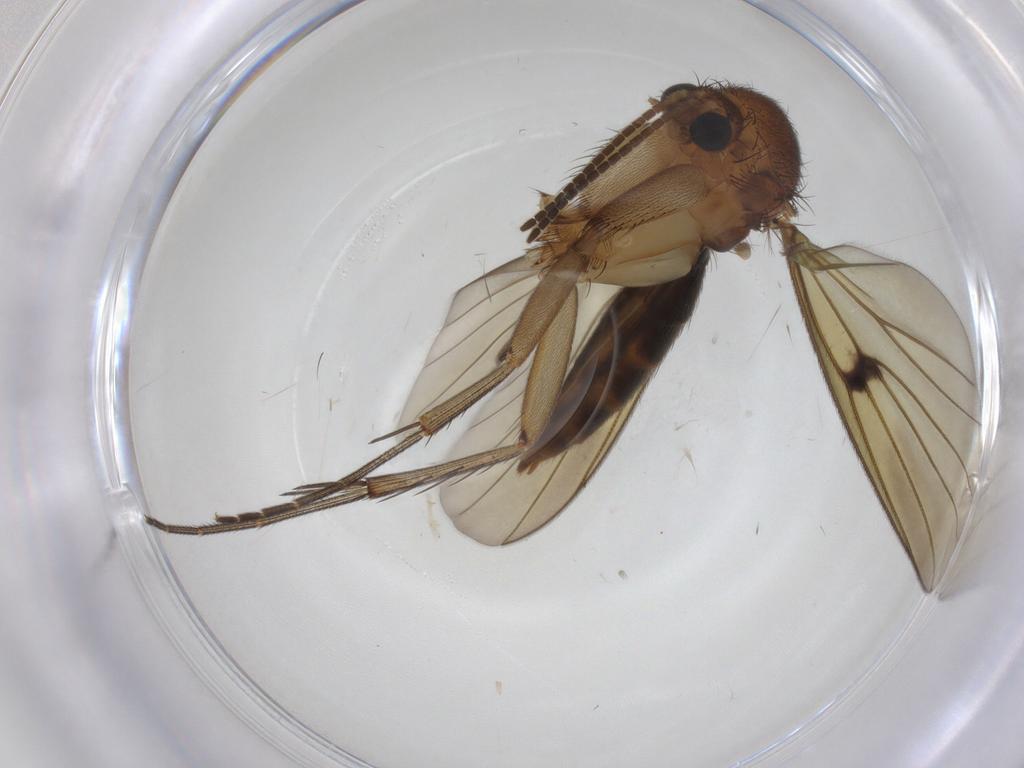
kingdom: Animalia
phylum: Arthropoda
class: Insecta
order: Diptera
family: Mycetophilidae
